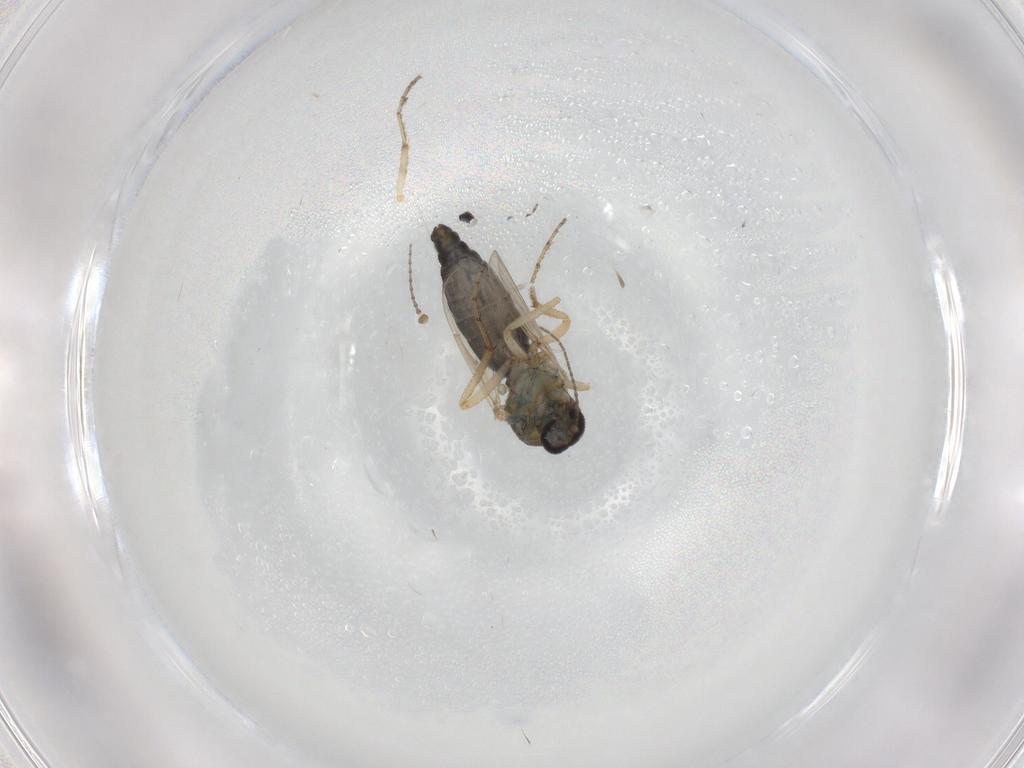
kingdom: Animalia
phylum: Arthropoda
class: Insecta
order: Diptera
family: Ceratopogonidae
